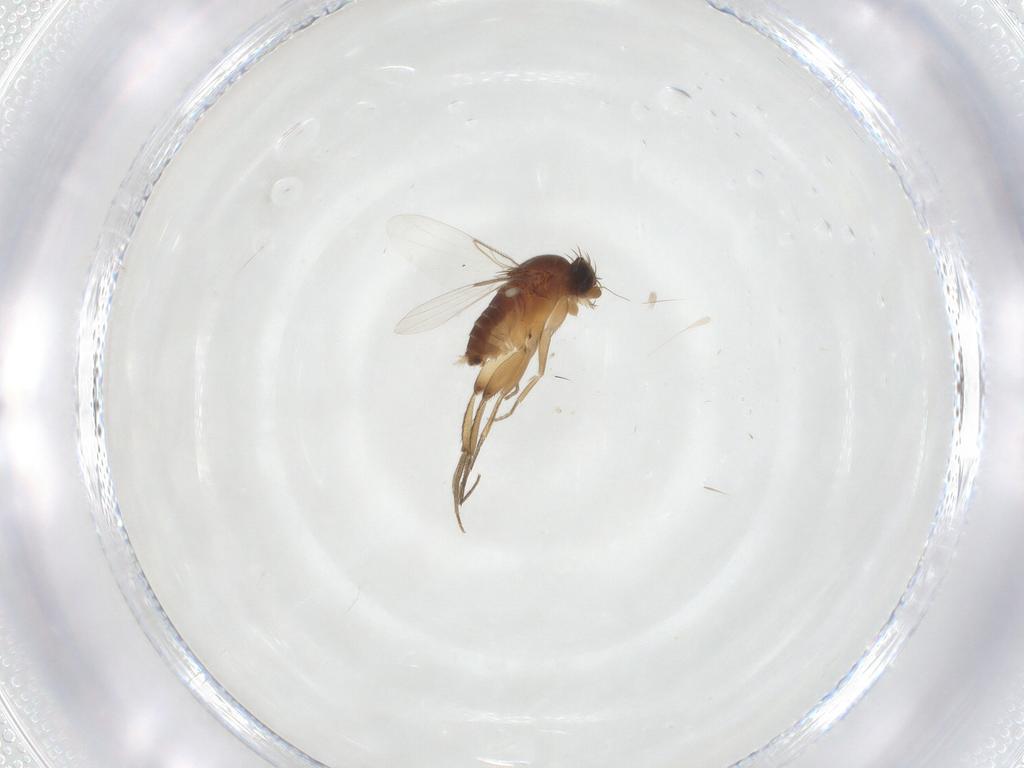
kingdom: Animalia
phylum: Arthropoda
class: Insecta
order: Diptera
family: Phoridae
